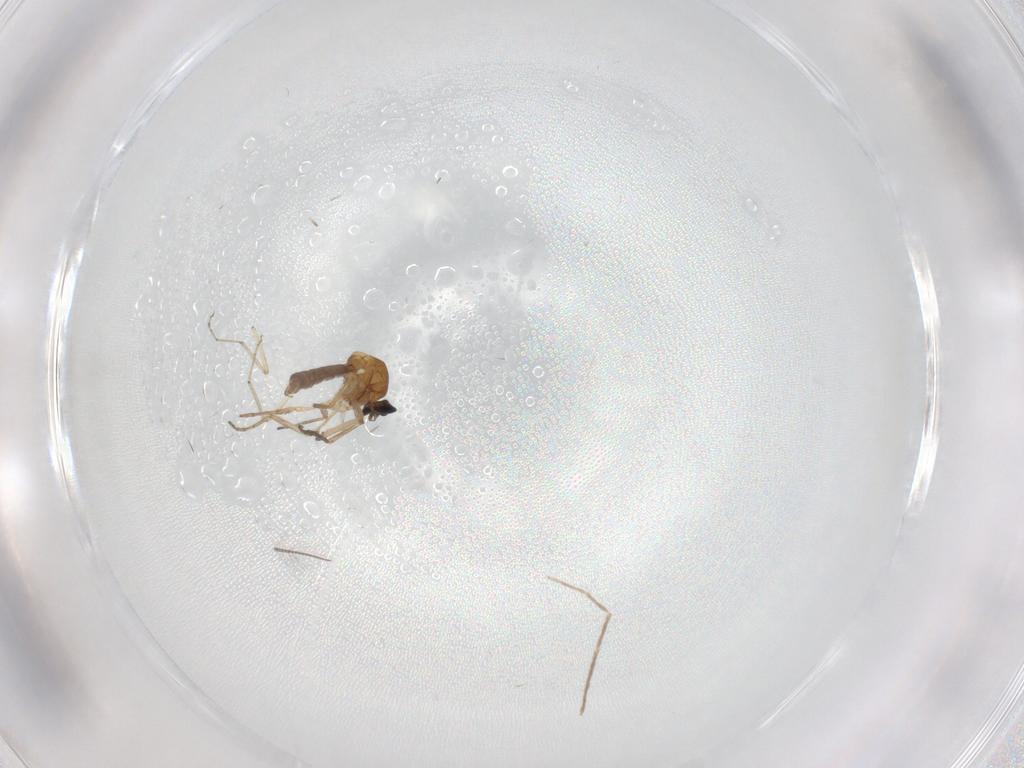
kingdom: Animalia
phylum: Arthropoda
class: Insecta
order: Diptera
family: Ceratopogonidae
